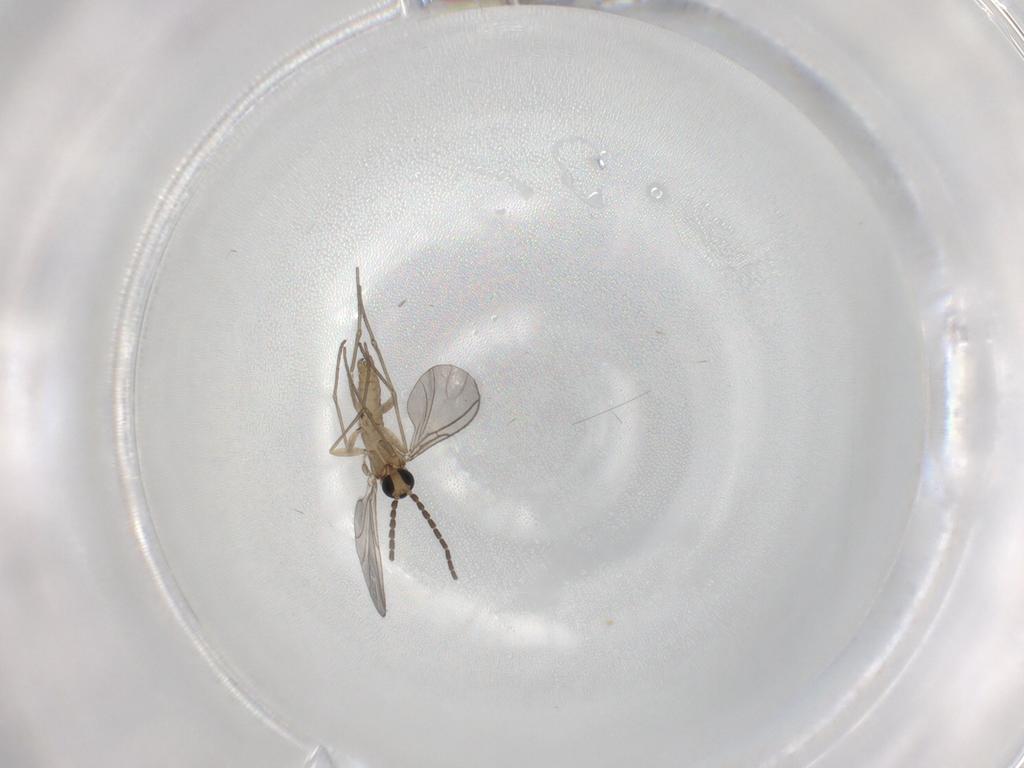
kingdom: Animalia
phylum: Arthropoda
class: Insecta
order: Diptera
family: Sciaridae
